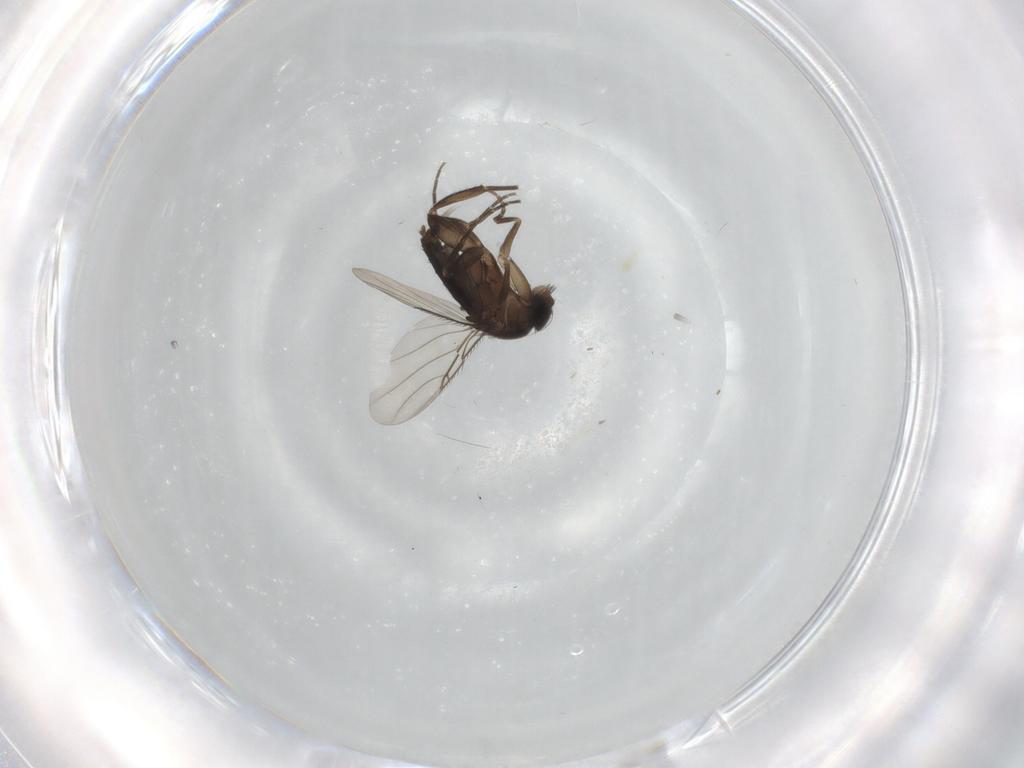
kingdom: Animalia
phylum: Arthropoda
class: Insecta
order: Diptera
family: Phoridae
